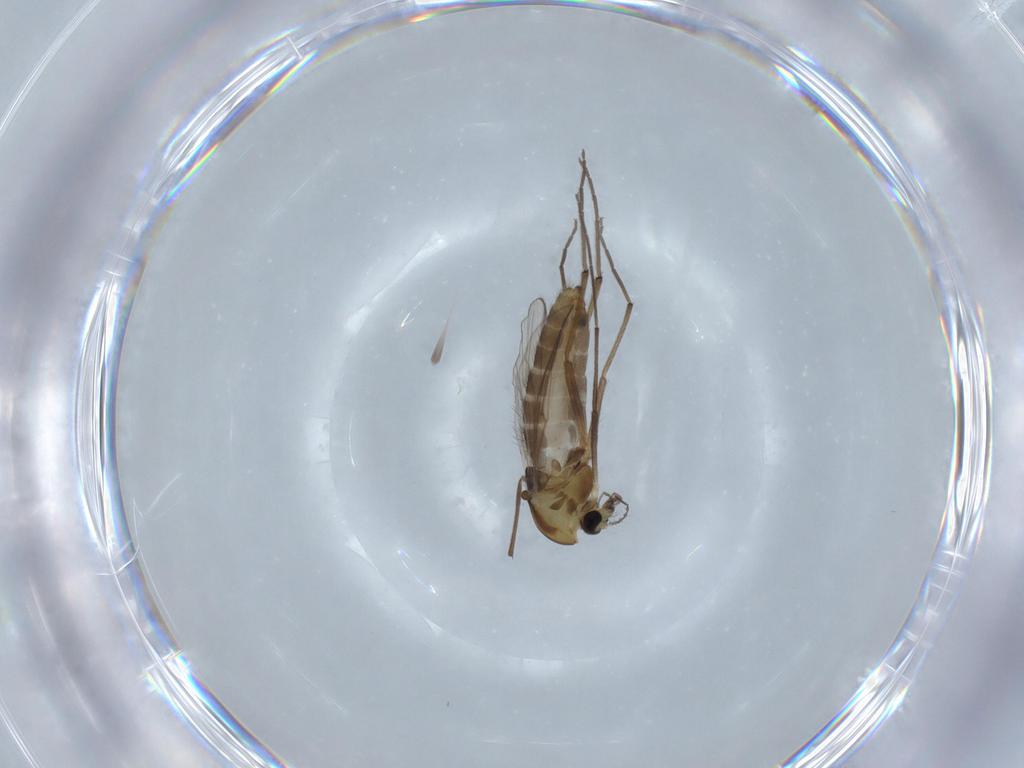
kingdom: Animalia
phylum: Arthropoda
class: Insecta
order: Diptera
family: Chironomidae
